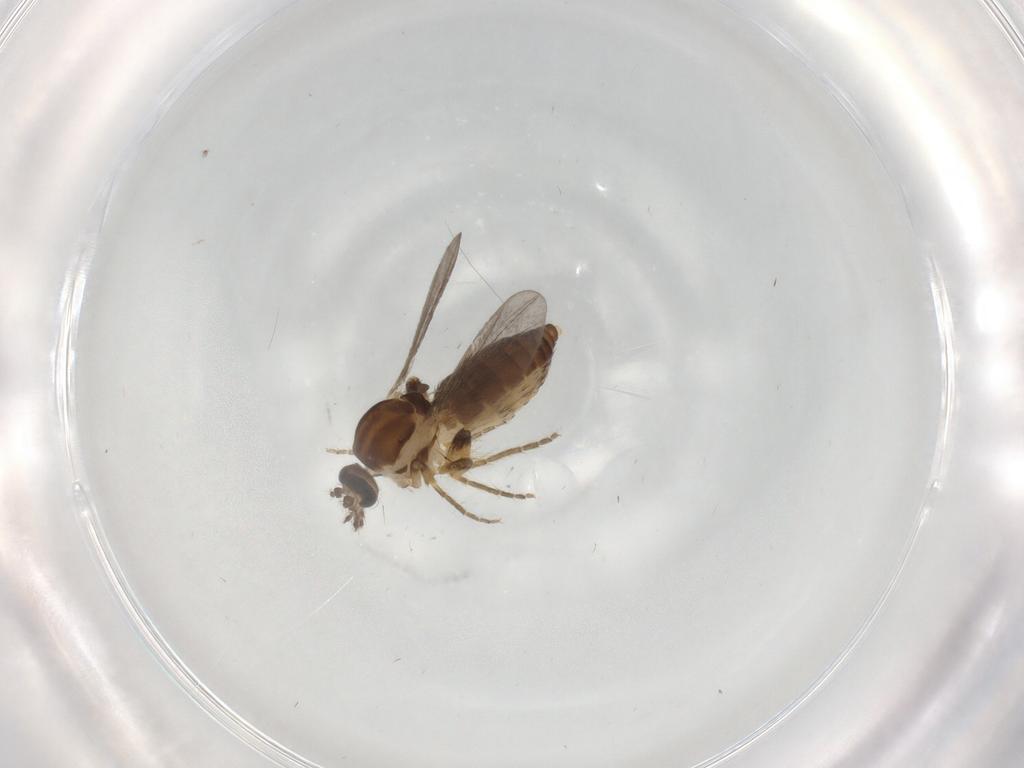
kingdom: Animalia
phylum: Arthropoda
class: Insecta
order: Diptera
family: Ceratopogonidae
